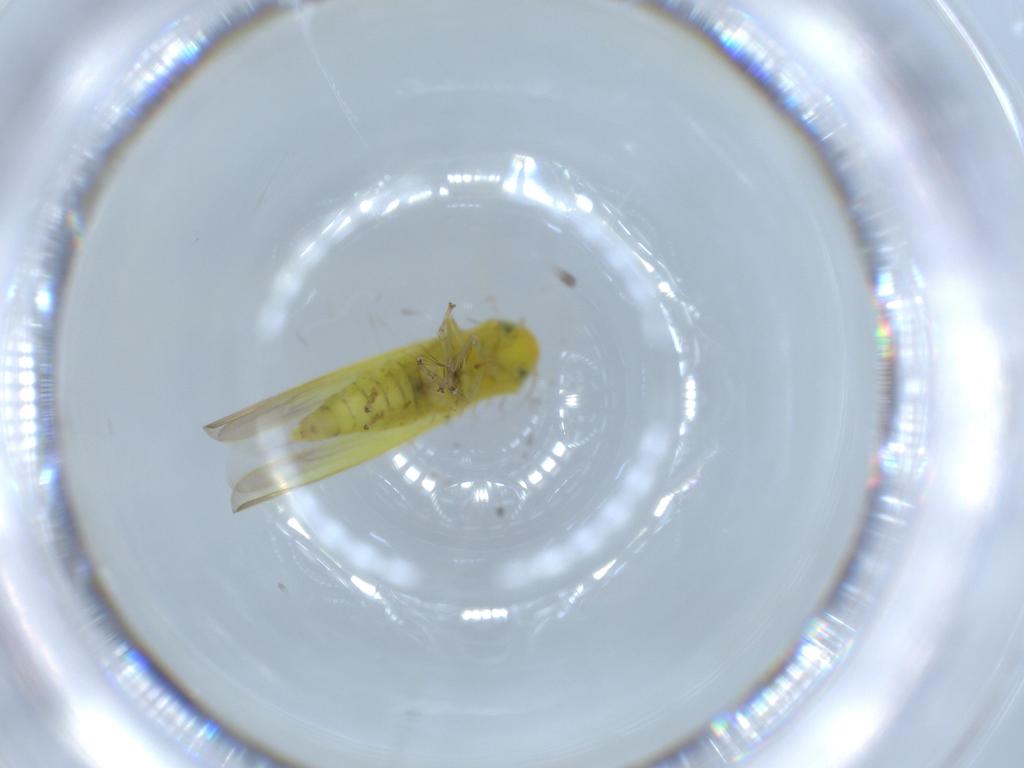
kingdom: Animalia
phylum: Arthropoda
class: Insecta
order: Hemiptera
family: Cicadellidae
